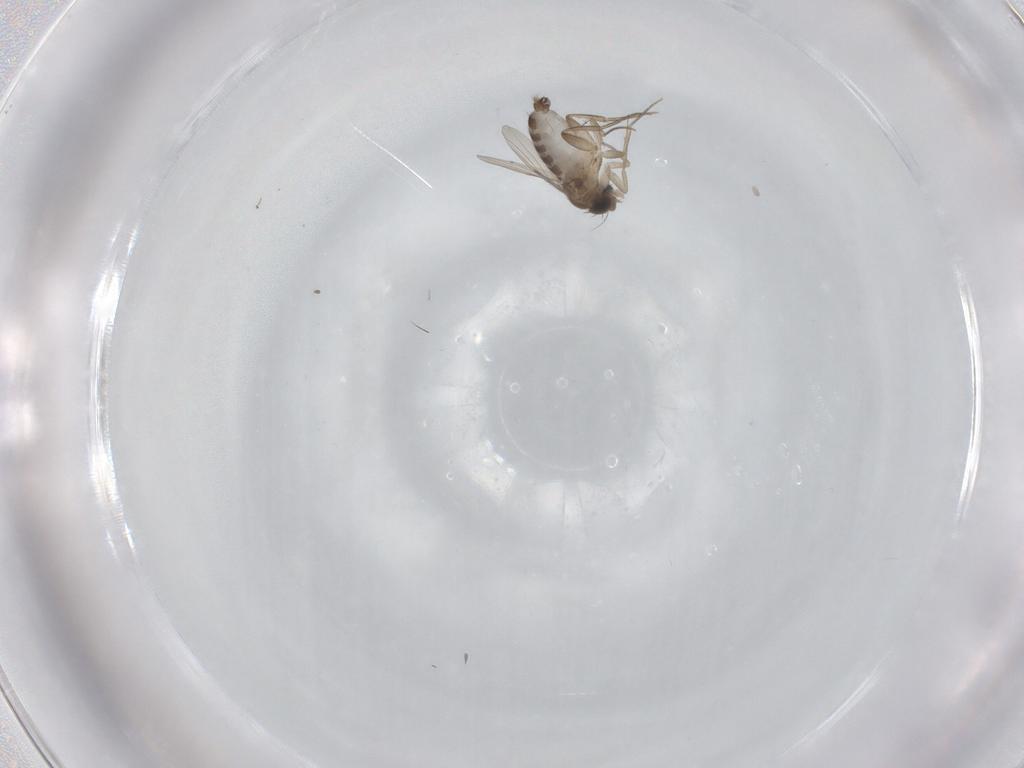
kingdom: Animalia
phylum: Arthropoda
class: Insecta
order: Diptera
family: Phoridae
